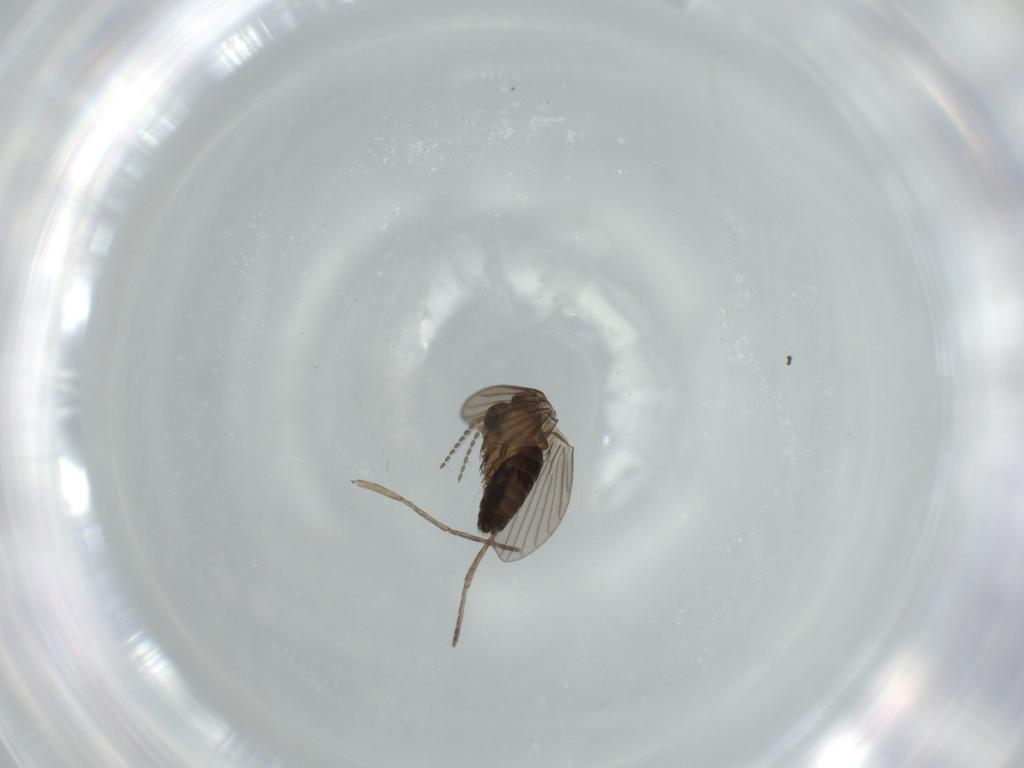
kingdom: Animalia
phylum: Arthropoda
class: Insecta
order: Diptera
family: Psychodidae
